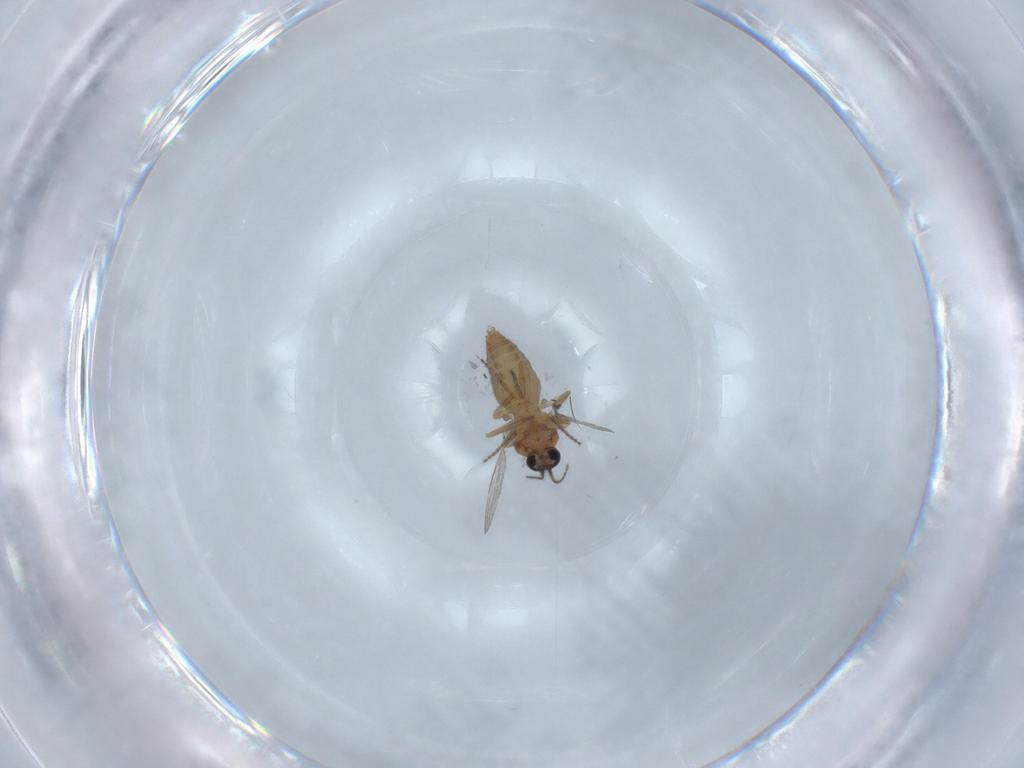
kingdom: Animalia
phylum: Arthropoda
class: Insecta
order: Diptera
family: Ceratopogonidae
